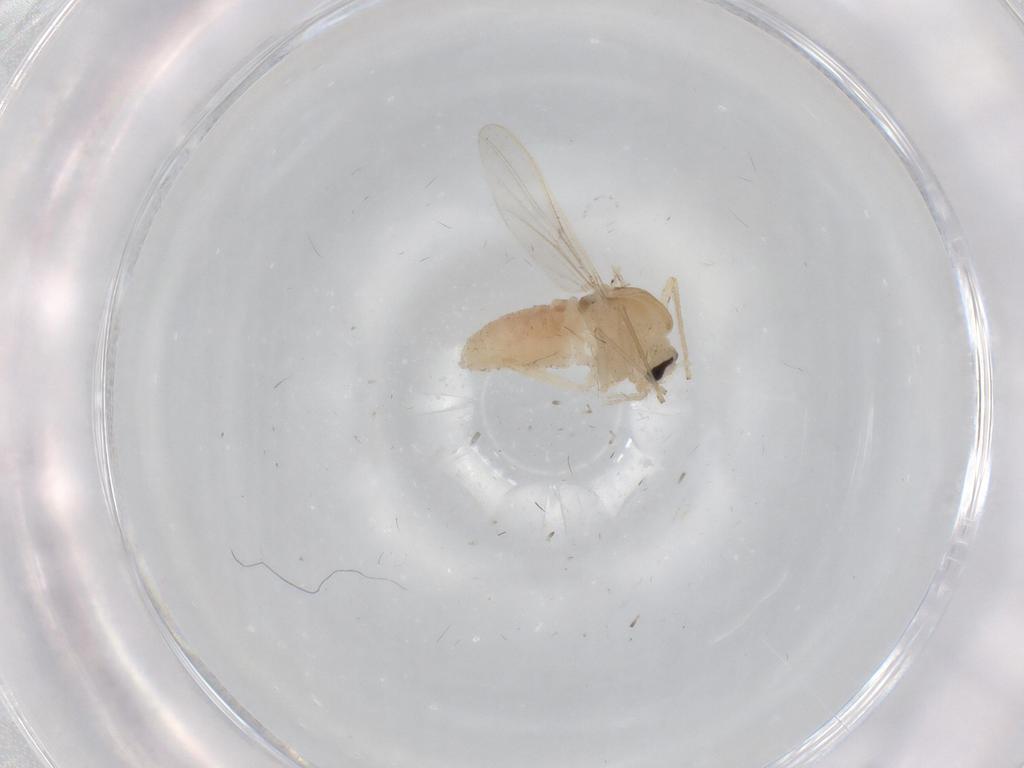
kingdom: Animalia
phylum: Arthropoda
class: Insecta
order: Diptera
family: Chironomidae
